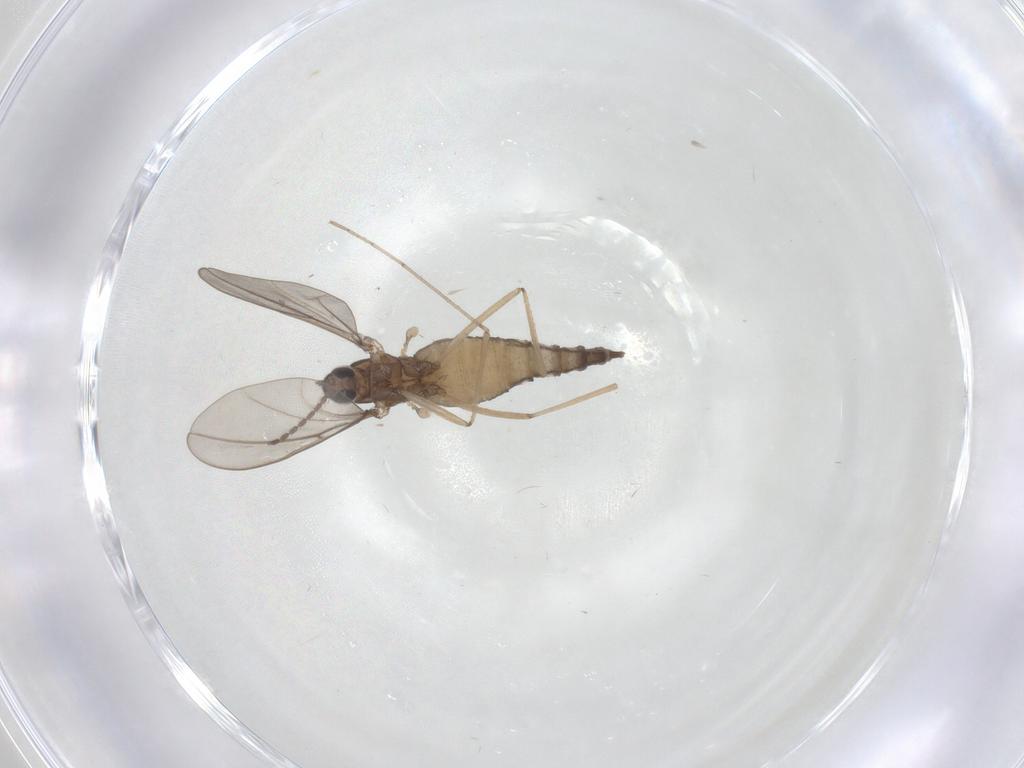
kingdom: Animalia
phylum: Arthropoda
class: Insecta
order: Diptera
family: Cecidomyiidae
